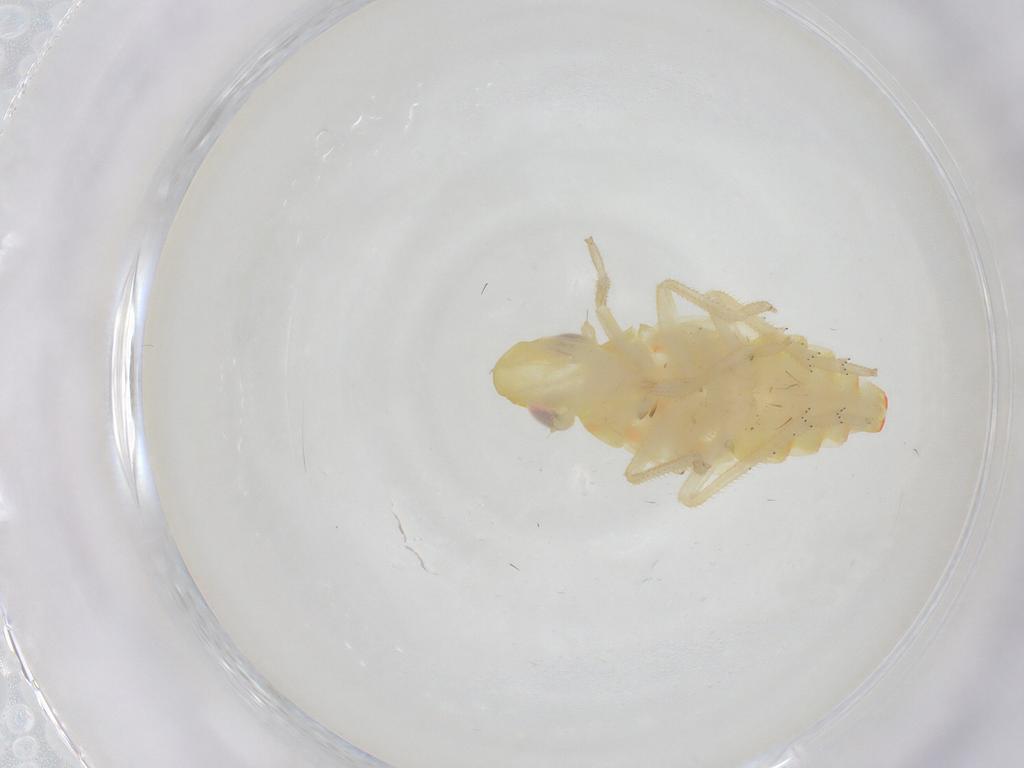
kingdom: Animalia
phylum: Arthropoda
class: Insecta
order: Hemiptera
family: Tropiduchidae
